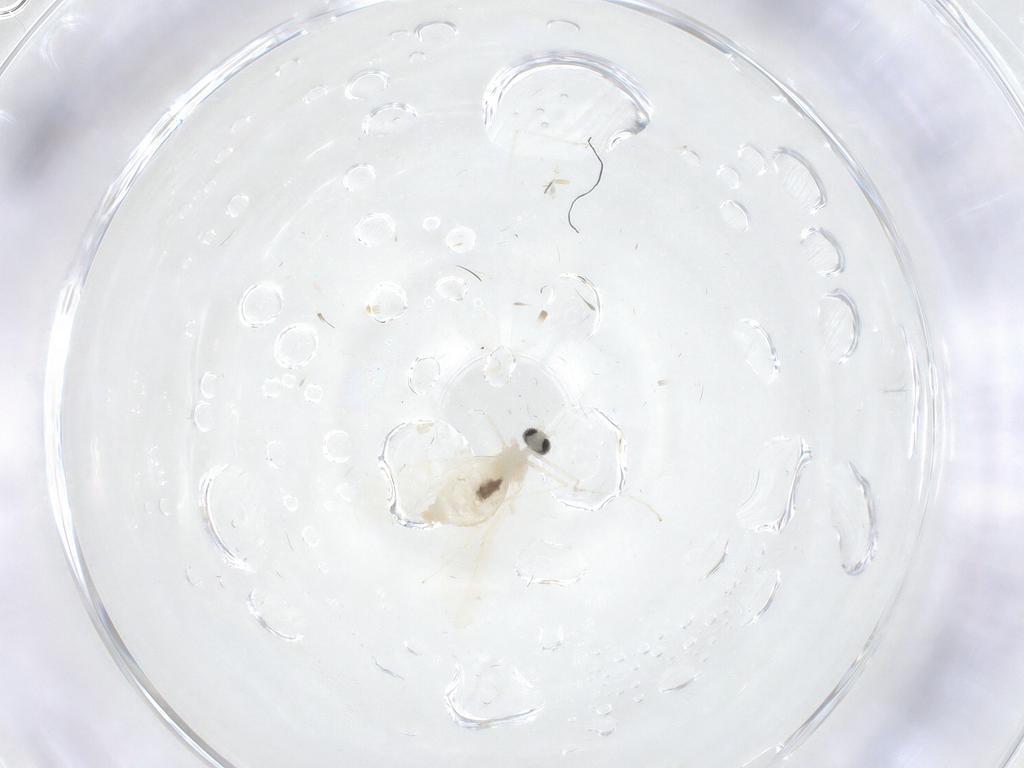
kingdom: Animalia
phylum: Arthropoda
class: Insecta
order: Diptera
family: Cecidomyiidae
